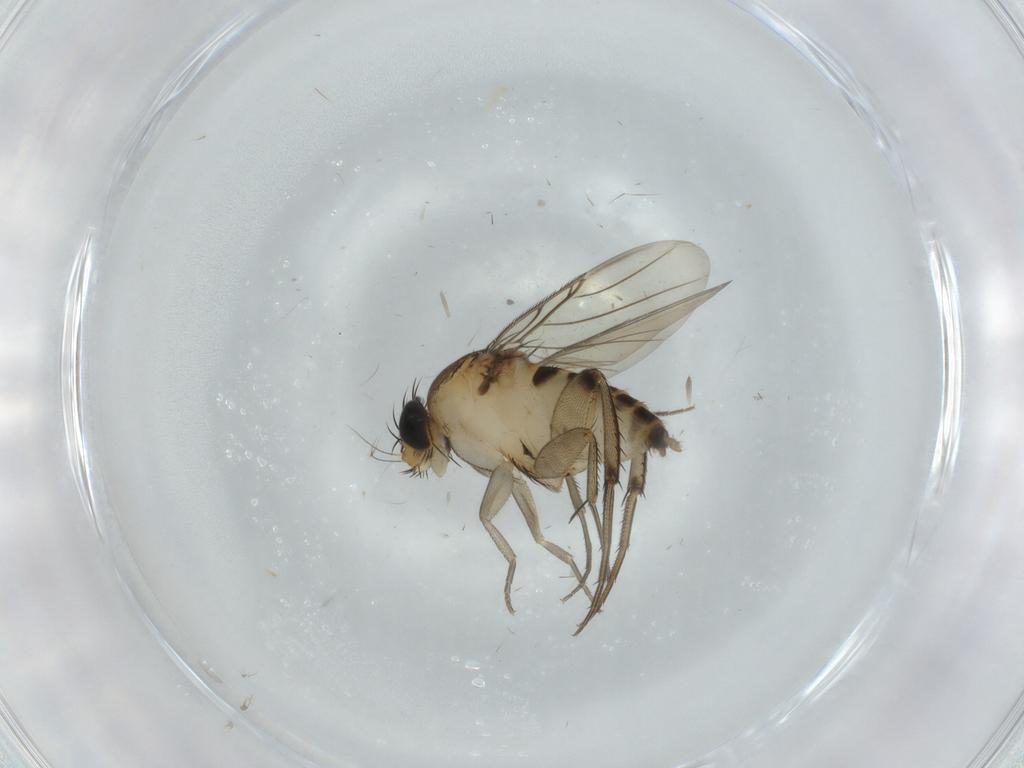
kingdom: Animalia
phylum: Arthropoda
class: Insecta
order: Diptera
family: Phoridae
